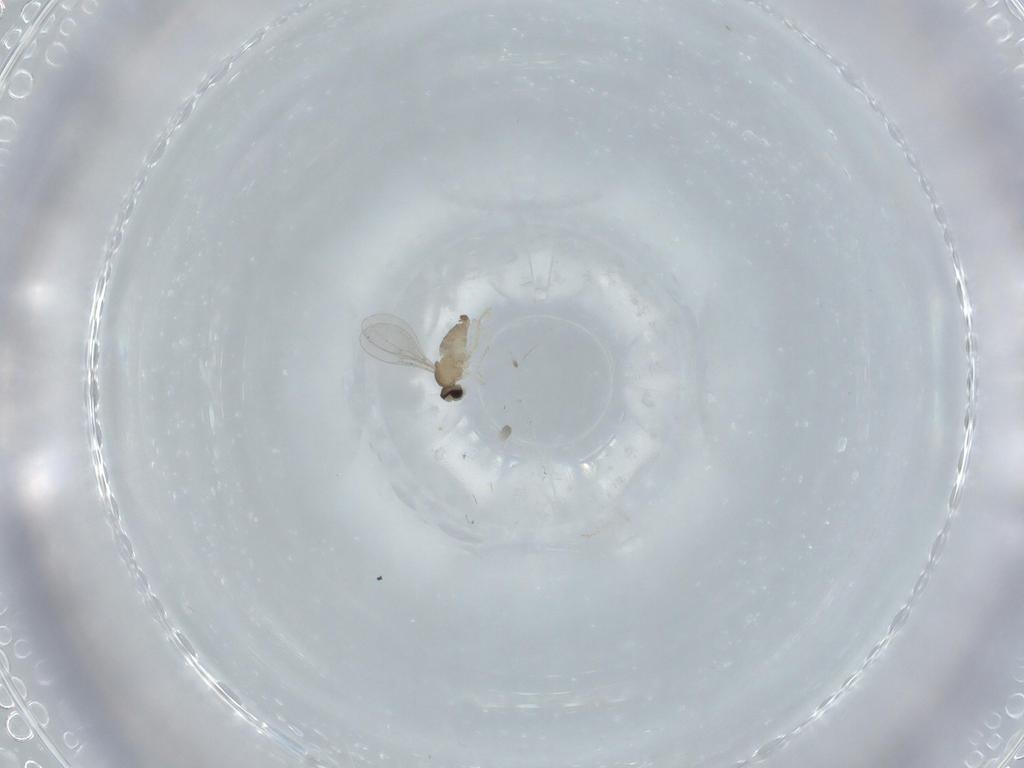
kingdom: Animalia
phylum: Arthropoda
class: Insecta
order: Diptera
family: Cecidomyiidae
